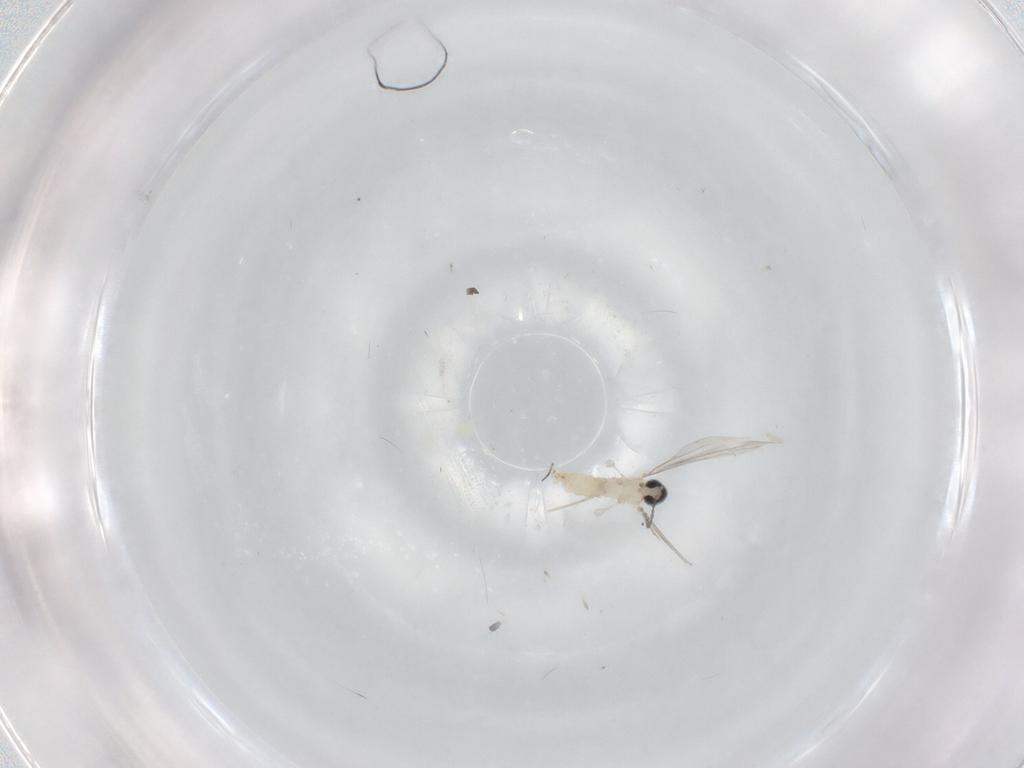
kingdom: Animalia
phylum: Arthropoda
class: Insecta
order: Diptera
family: Cecidomyiidae
